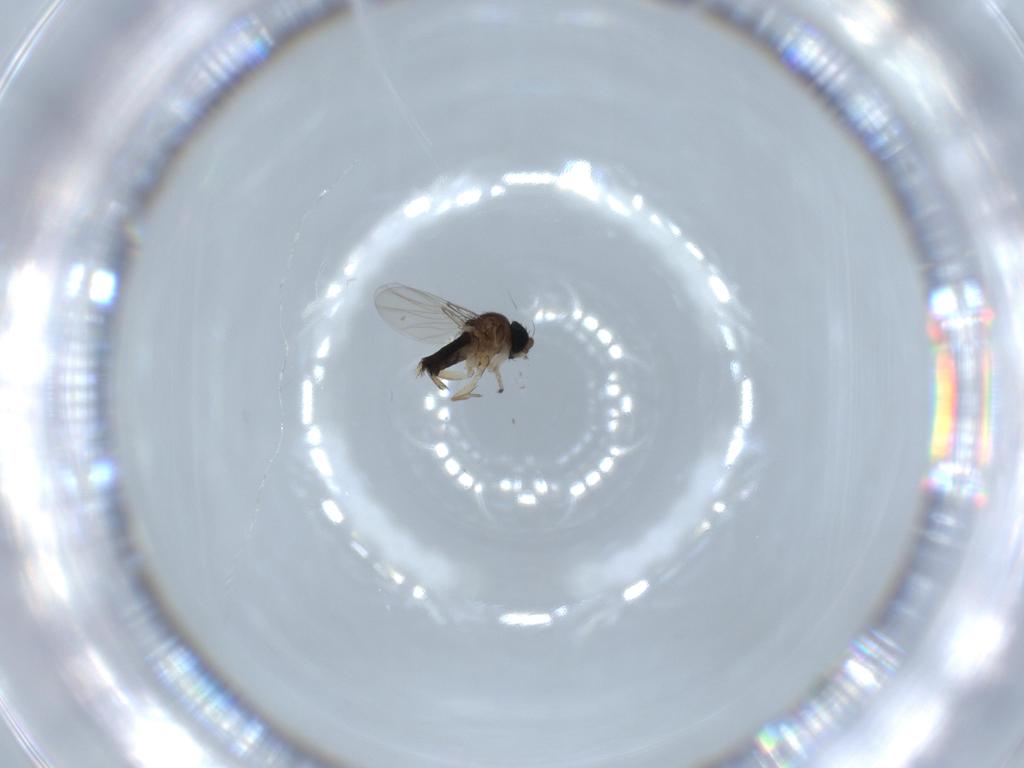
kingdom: Animalia
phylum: Arthropoda
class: Insecta
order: Diptera
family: Phoridae
